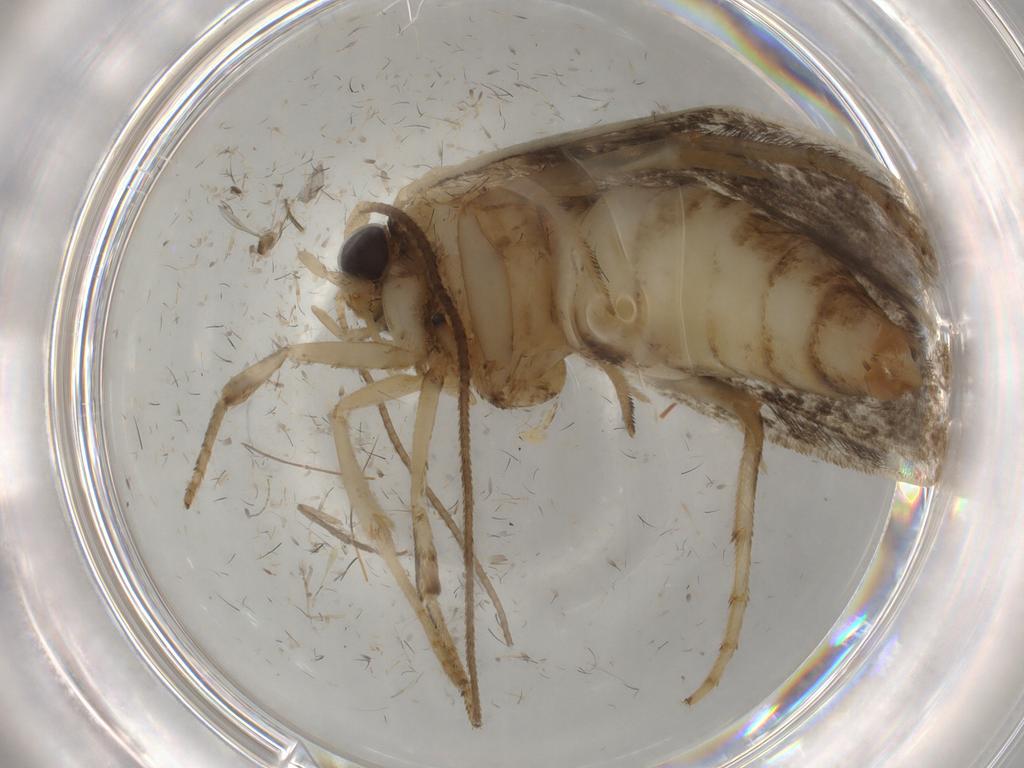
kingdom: Animalia
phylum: Arthropoda
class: Insecta
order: Lepidoptera
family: Yponomeutidae
